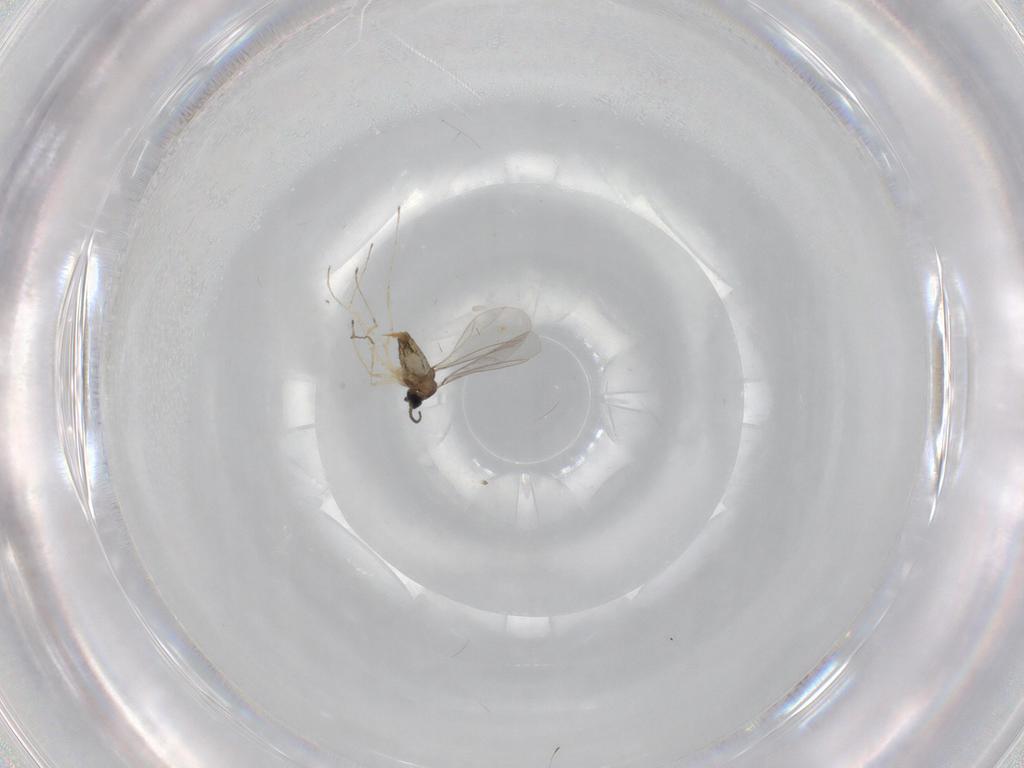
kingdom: Animalia
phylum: Arthropoda
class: Insecta
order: Diptera
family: Cecidomyiidae
